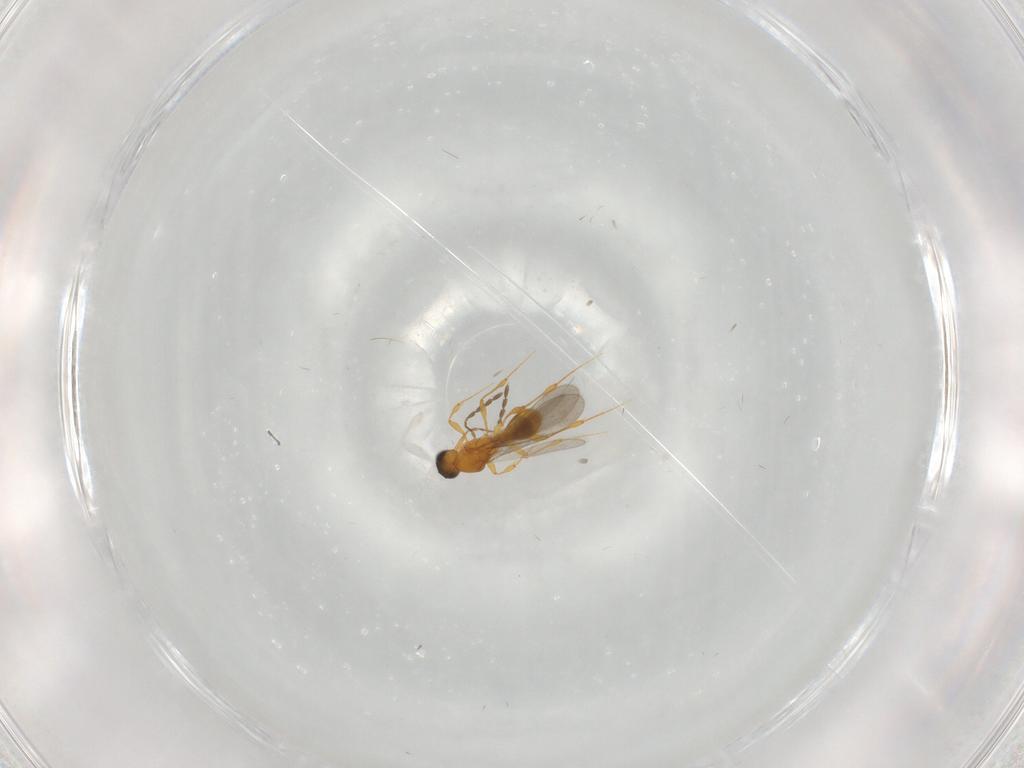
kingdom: Animalia
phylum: Arthropoda
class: Insecta
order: Hymenoptera
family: Platygastridae
